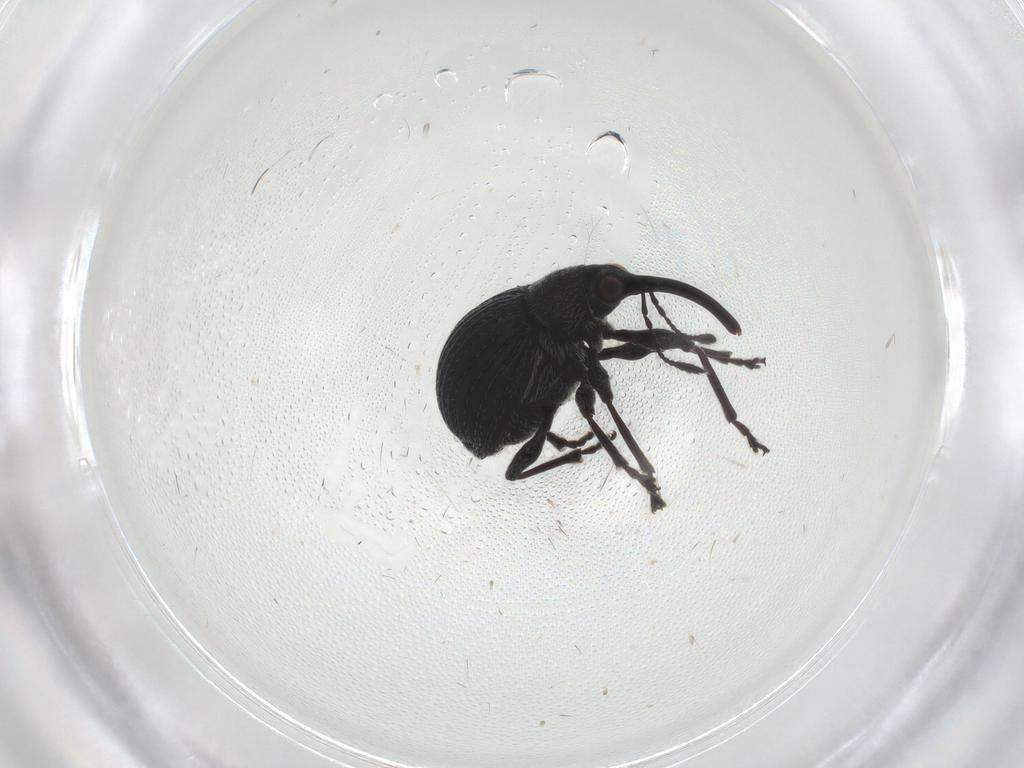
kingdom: Animalia
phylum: Arthropoda
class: Insecta
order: Coleoptera
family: Brentidae
